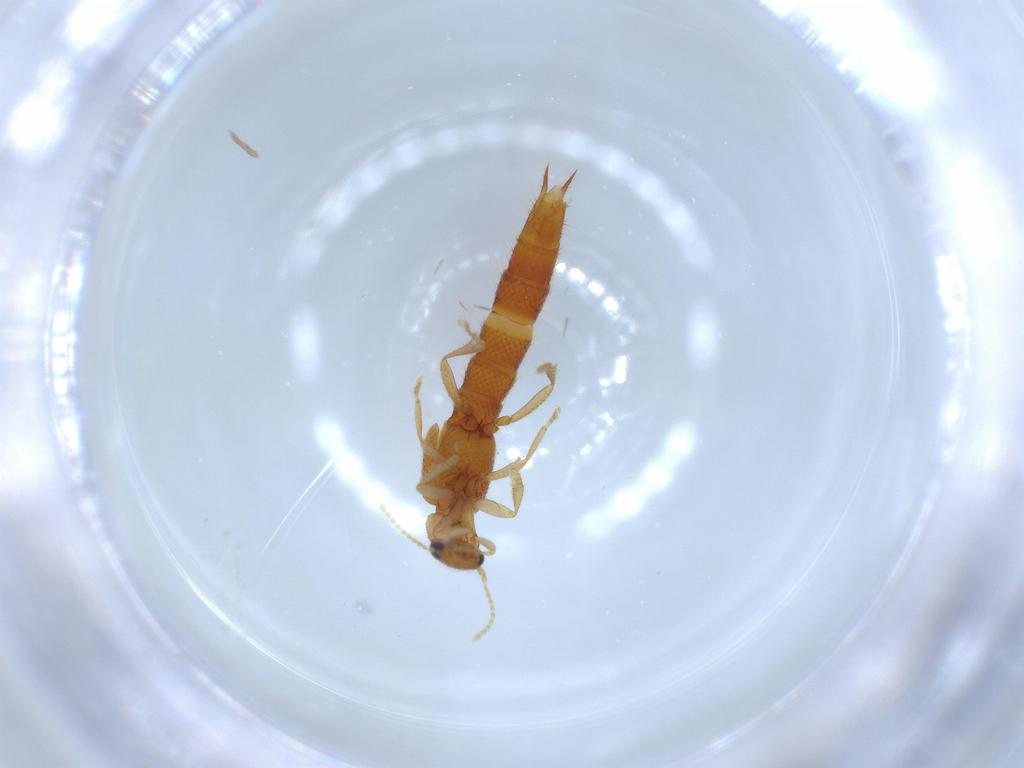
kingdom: Animalia
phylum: Arthropoda
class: Insecta
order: Coleoptera
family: Staphylinidae
